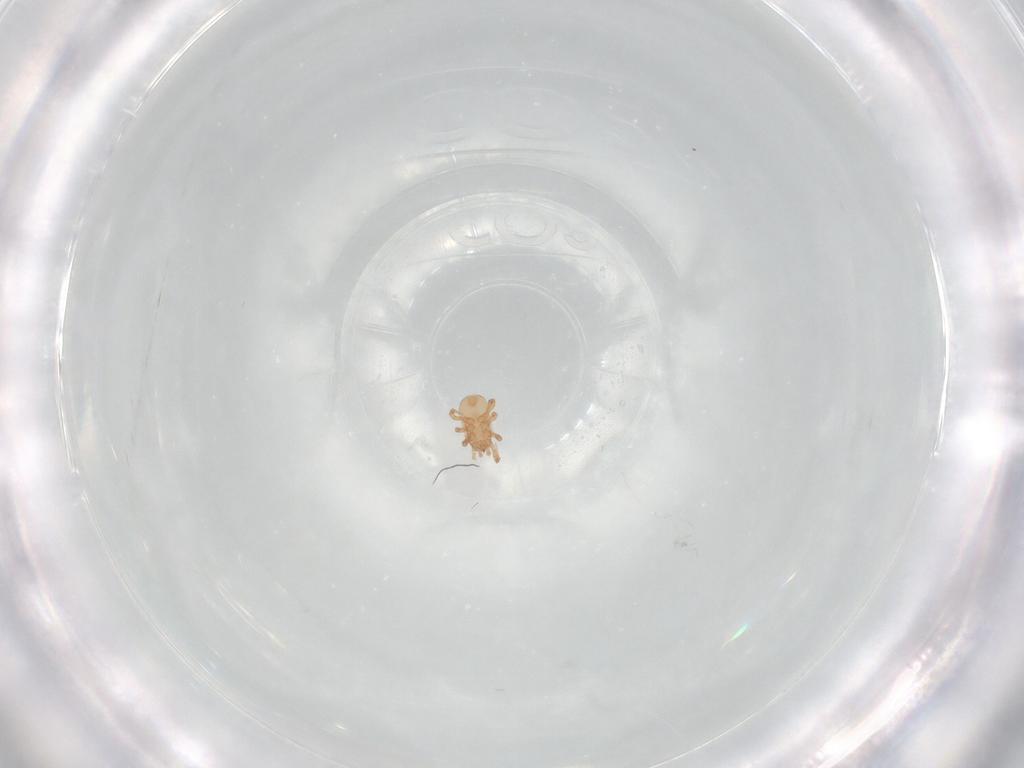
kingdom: Animalia
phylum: Arthropoda
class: Arachnida
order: Mesostigmata
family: Ascidae
